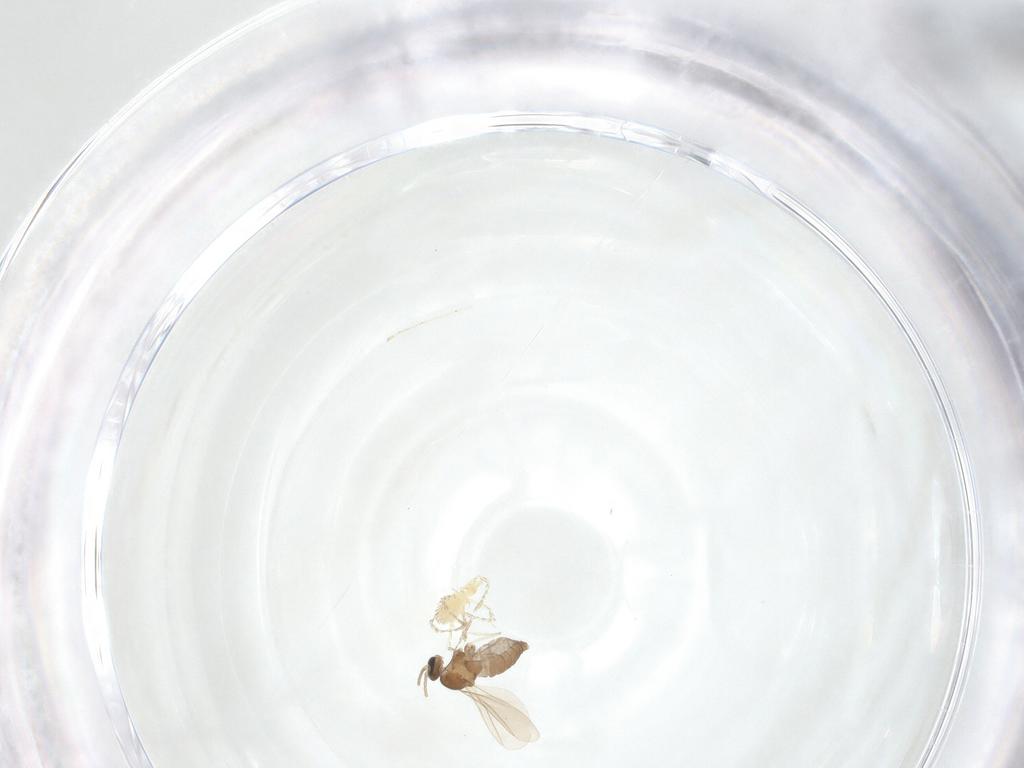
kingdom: Animalia
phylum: Arthropoda
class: Insecta
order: Diptera
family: Cecidomyiidae
